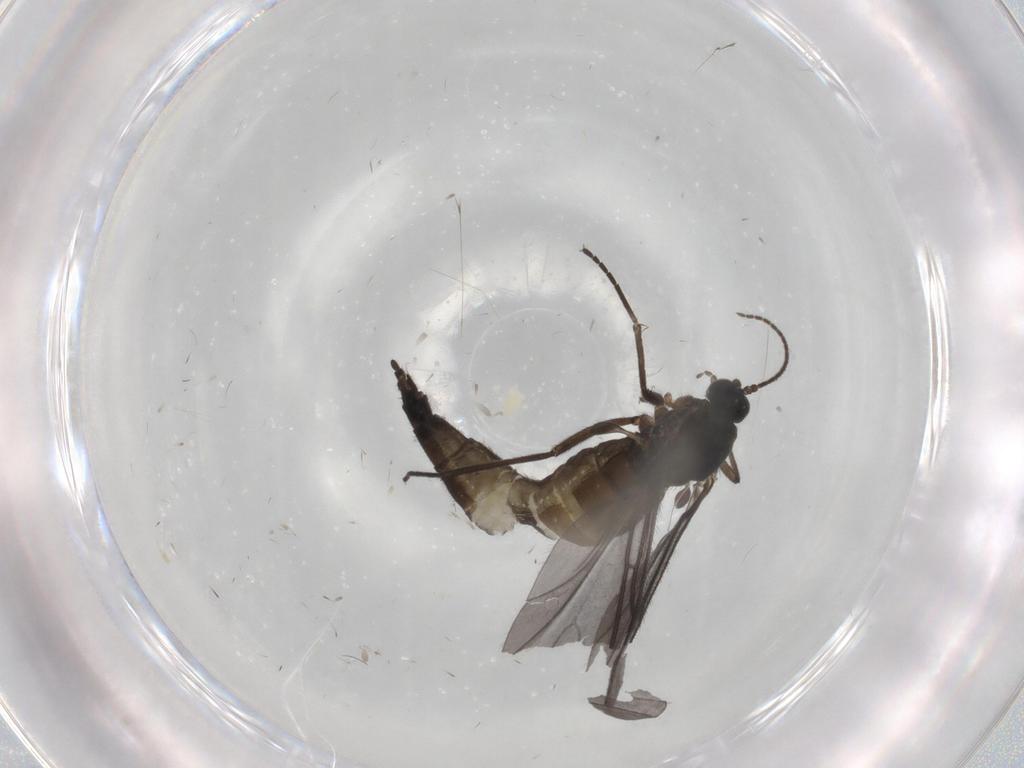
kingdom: Animalia
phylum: Arthropoda
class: Insecta
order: Diptera
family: Sciaridae
